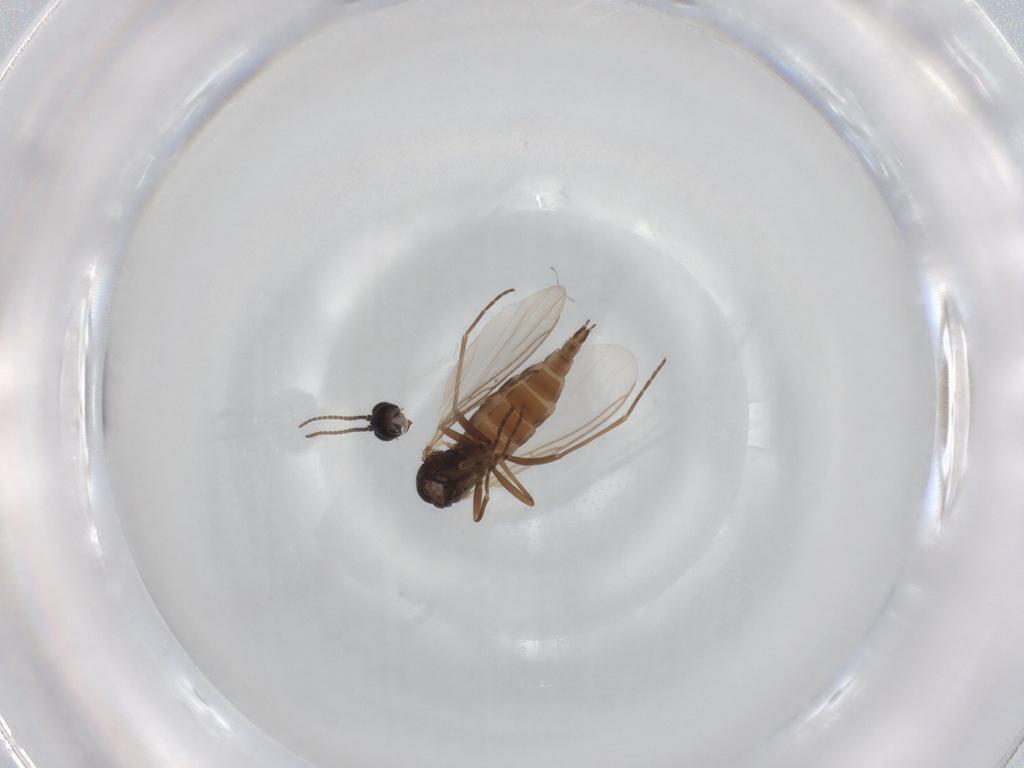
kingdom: Animalia
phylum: Arthropoda
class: Insecta
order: Diptera
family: Sciaridae
